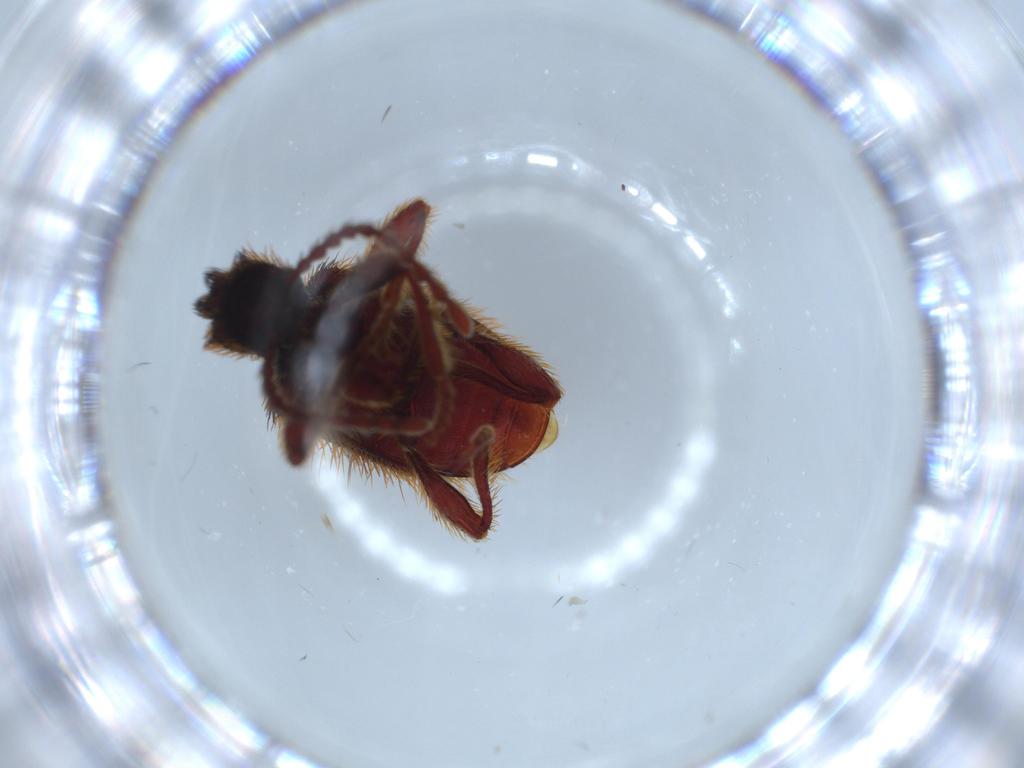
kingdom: Animalia
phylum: Arthropoda
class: Insecta
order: Coleoptera
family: Ptinidae
